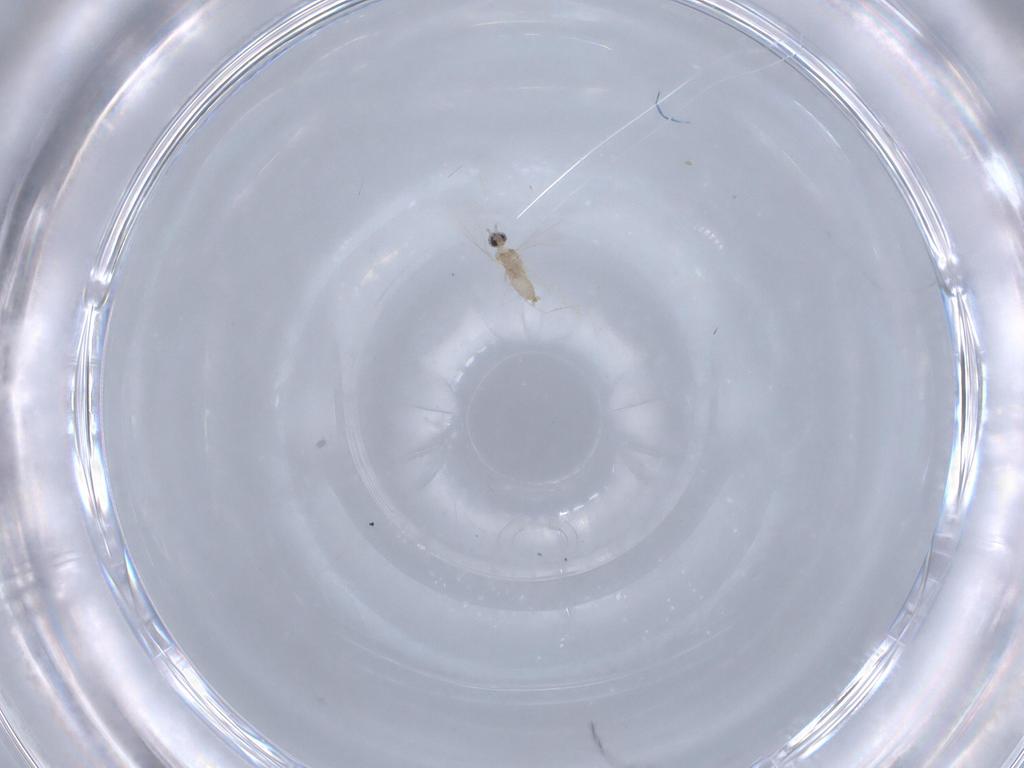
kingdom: Animalia
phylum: Arthropoda
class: Insecta
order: Diptera
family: Cecidomyiidae
